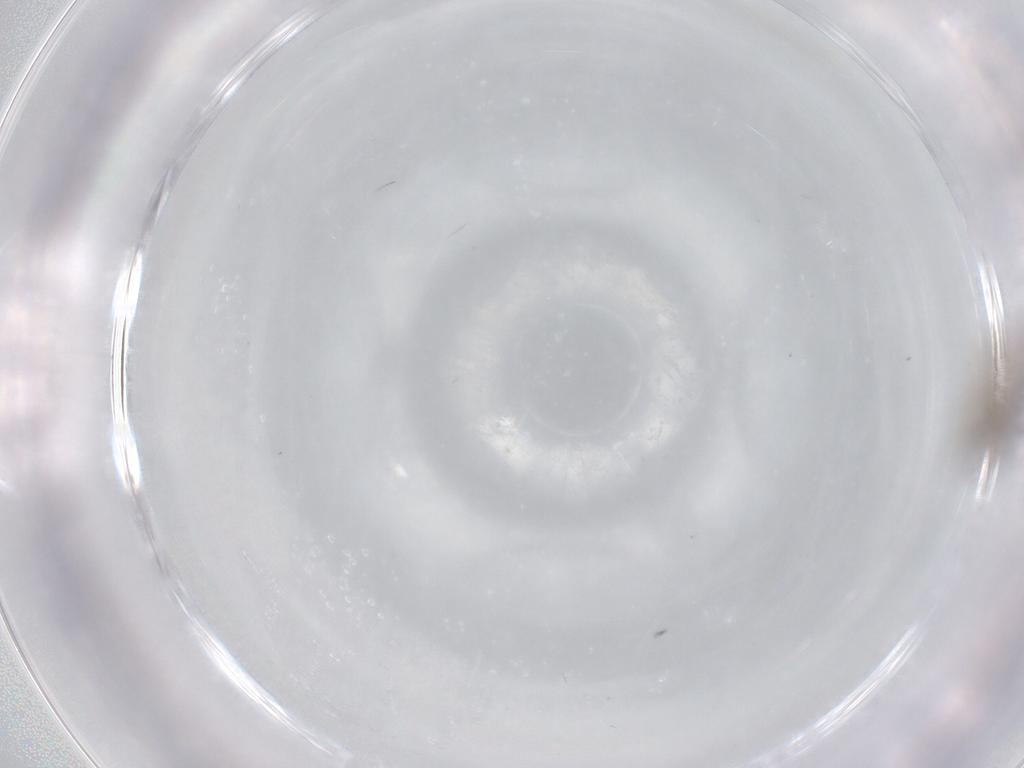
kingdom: Animalia
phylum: Arthropoda
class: Insecta
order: Diptera
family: Cecidomyiidae
